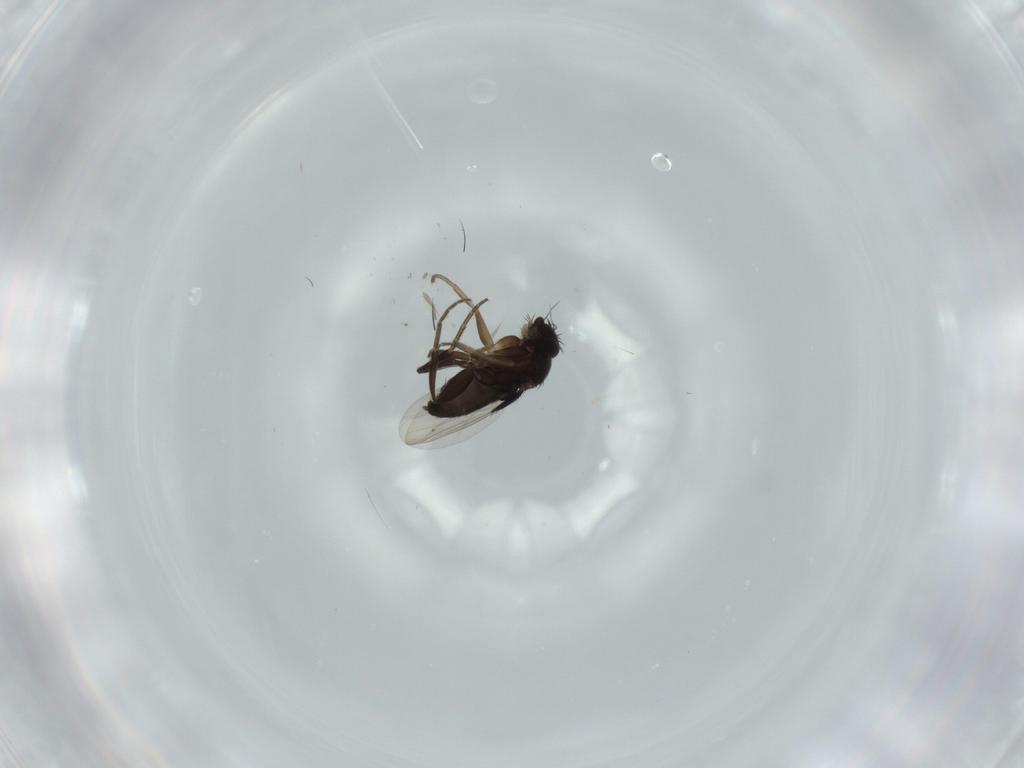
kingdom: Animalia
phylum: Arthropoda
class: Insecta
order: Diptera
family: Phoridae
